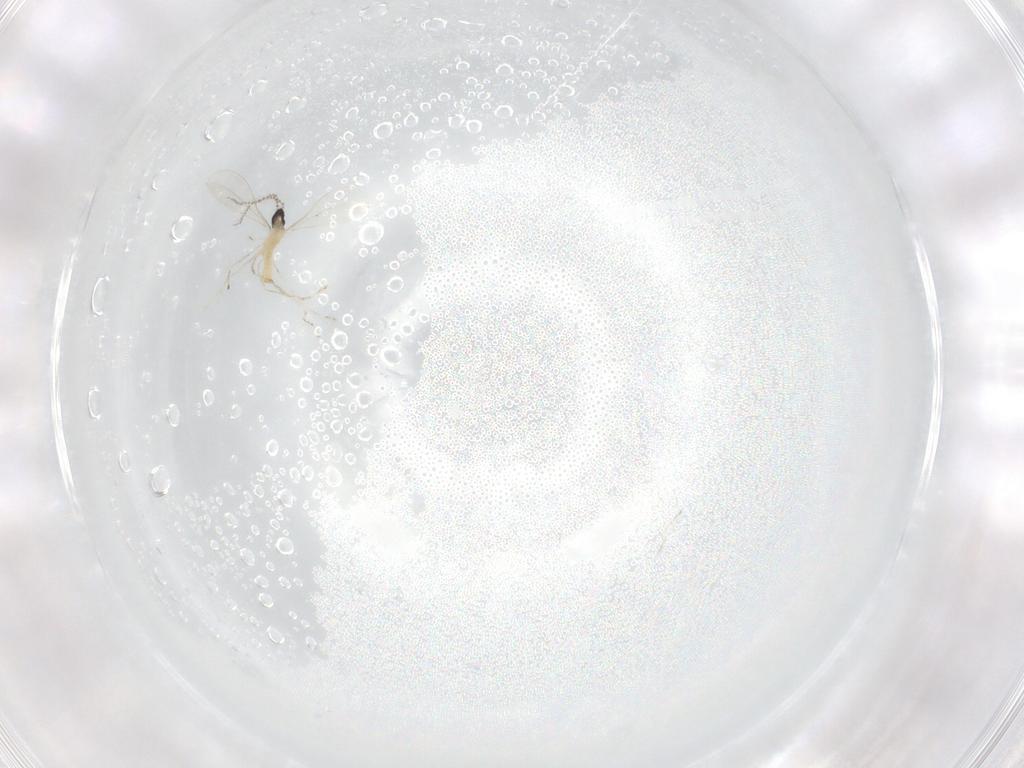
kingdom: Animalia
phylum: Arthropoda
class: Insecta
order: Diptera
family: Cecidomyiidae
